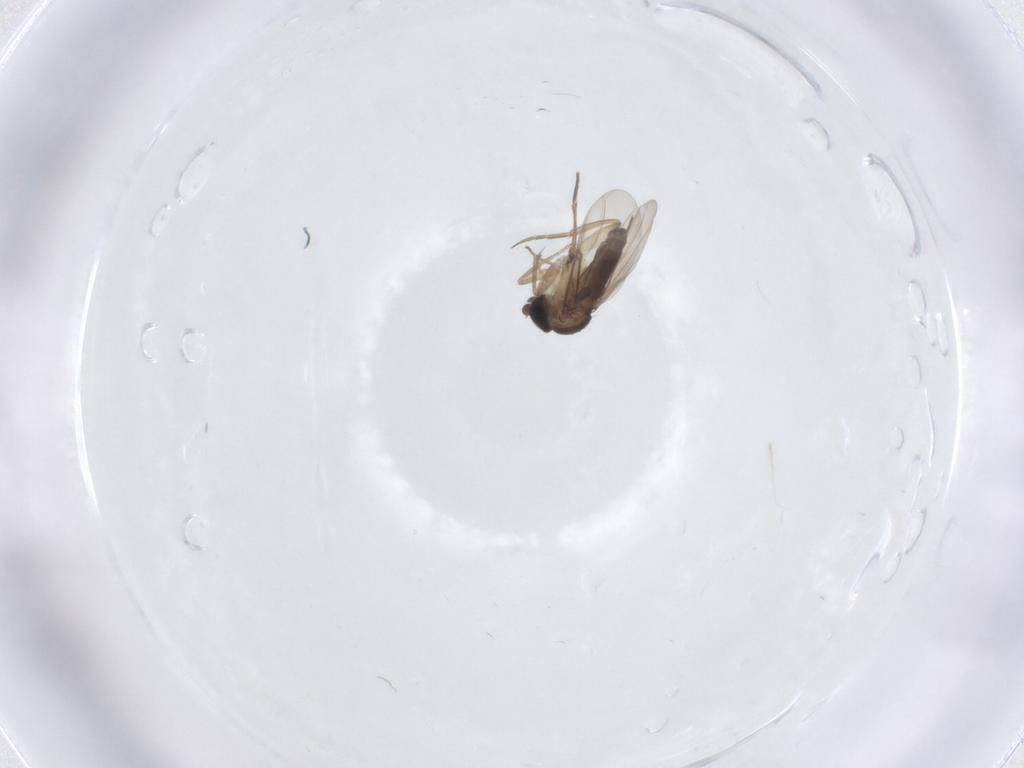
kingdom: Animalia
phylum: Arthropoda
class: Insecta
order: Diptera
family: Phoridae
